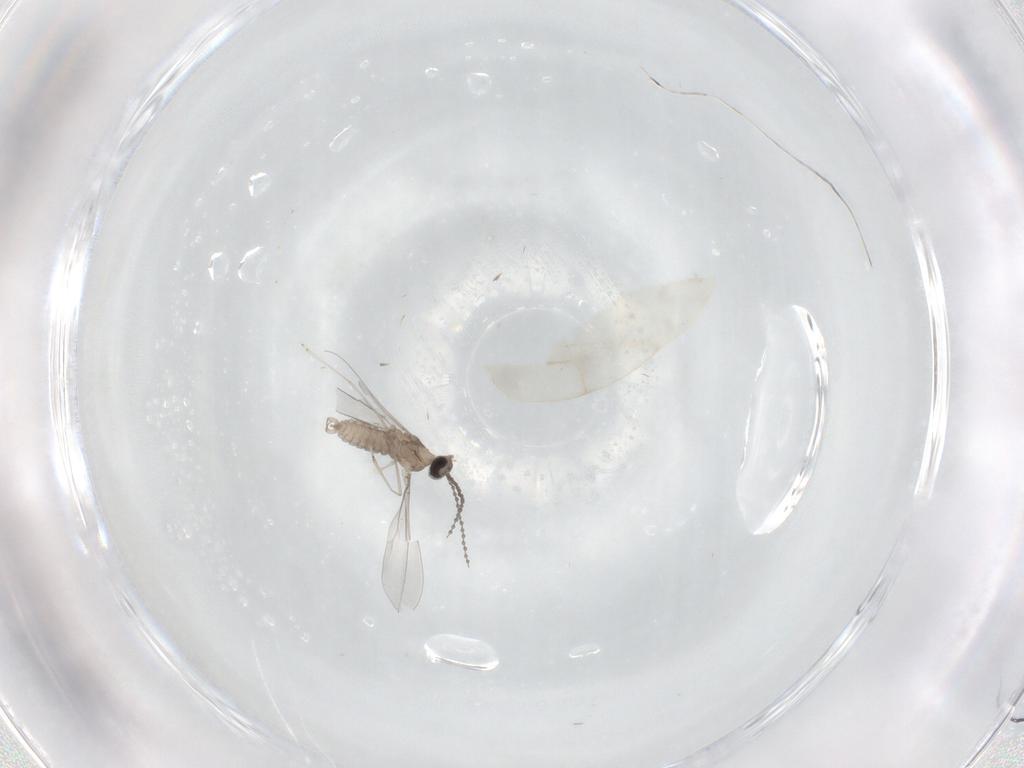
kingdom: Animalia
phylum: Arthropoda
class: Insecta
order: Diptera
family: Cecidomyiidae
